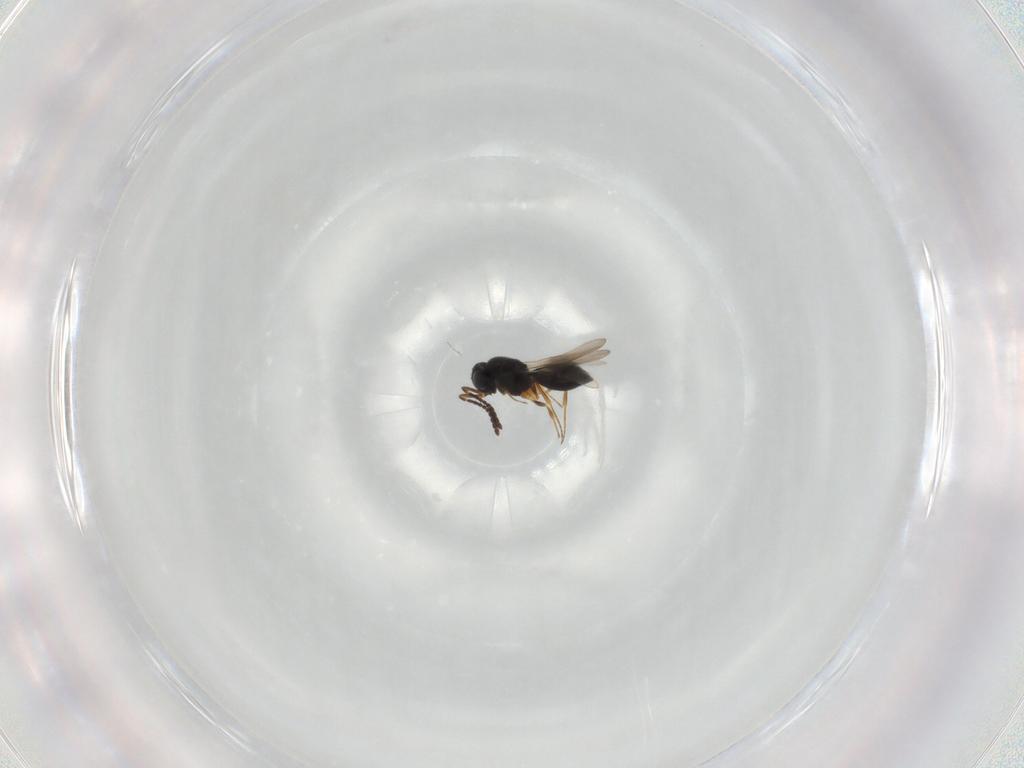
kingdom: Animalia
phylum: Arthropoda
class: Insecta
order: Hymenoptera
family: Scelionidae
